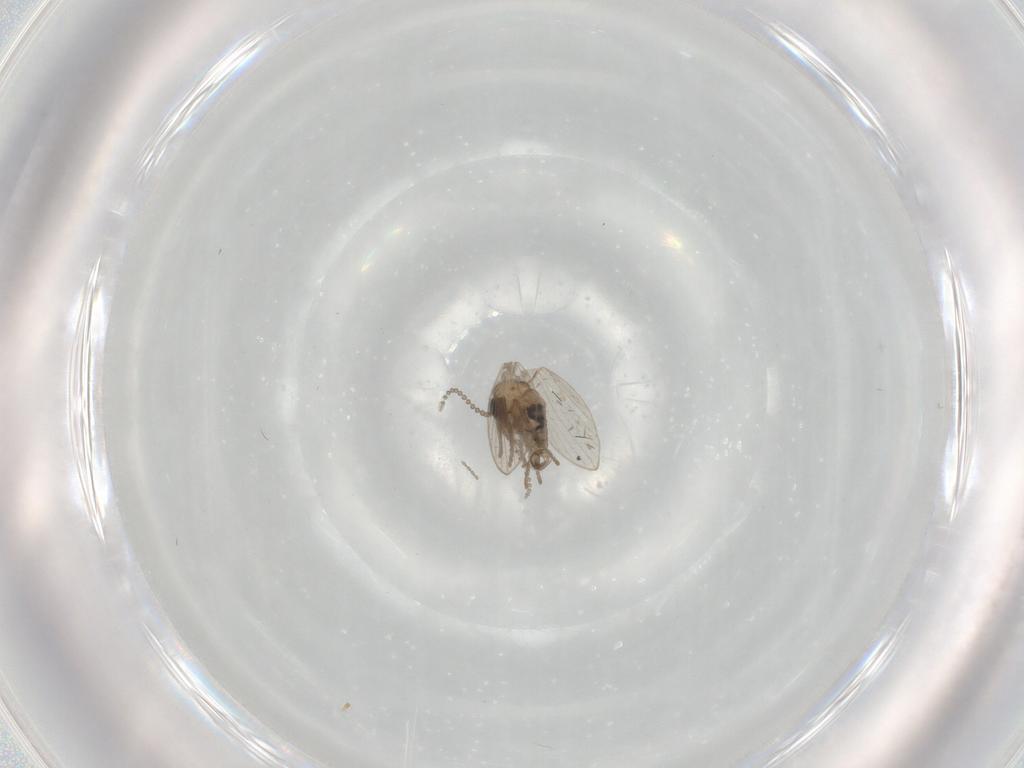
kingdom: Animalia
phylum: Arthropoda
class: Insecta
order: Diptera
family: Psychodidae
